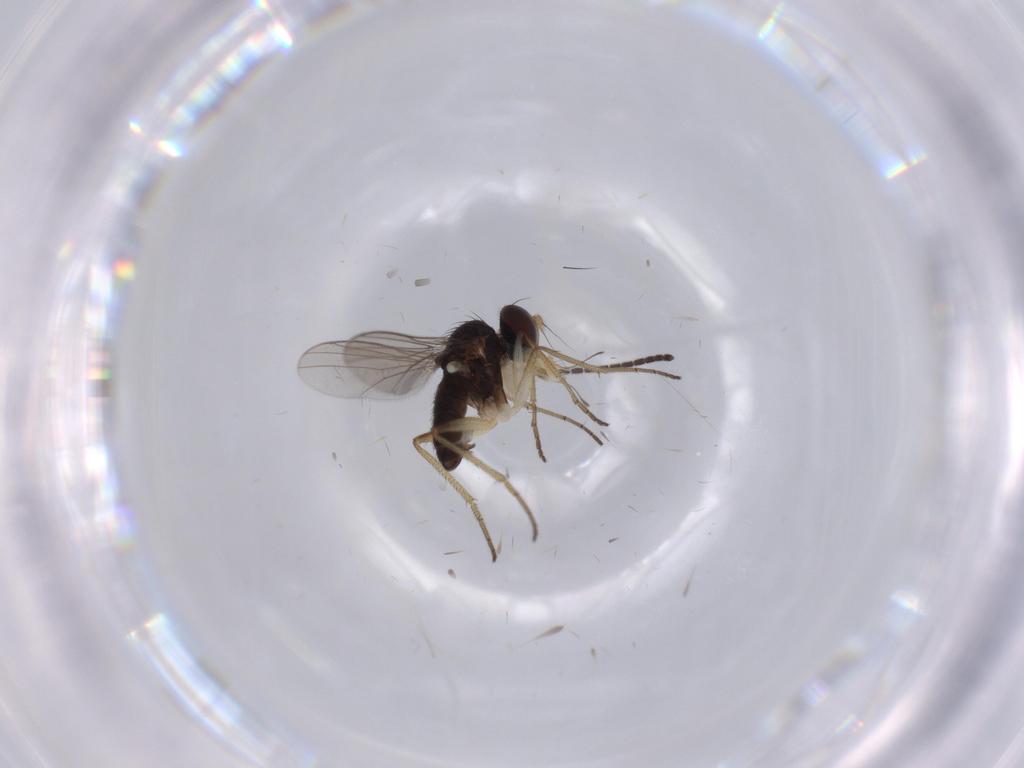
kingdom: Animalia
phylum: Arthropoda
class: Insecta
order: Diptera
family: Dolichopodidae
